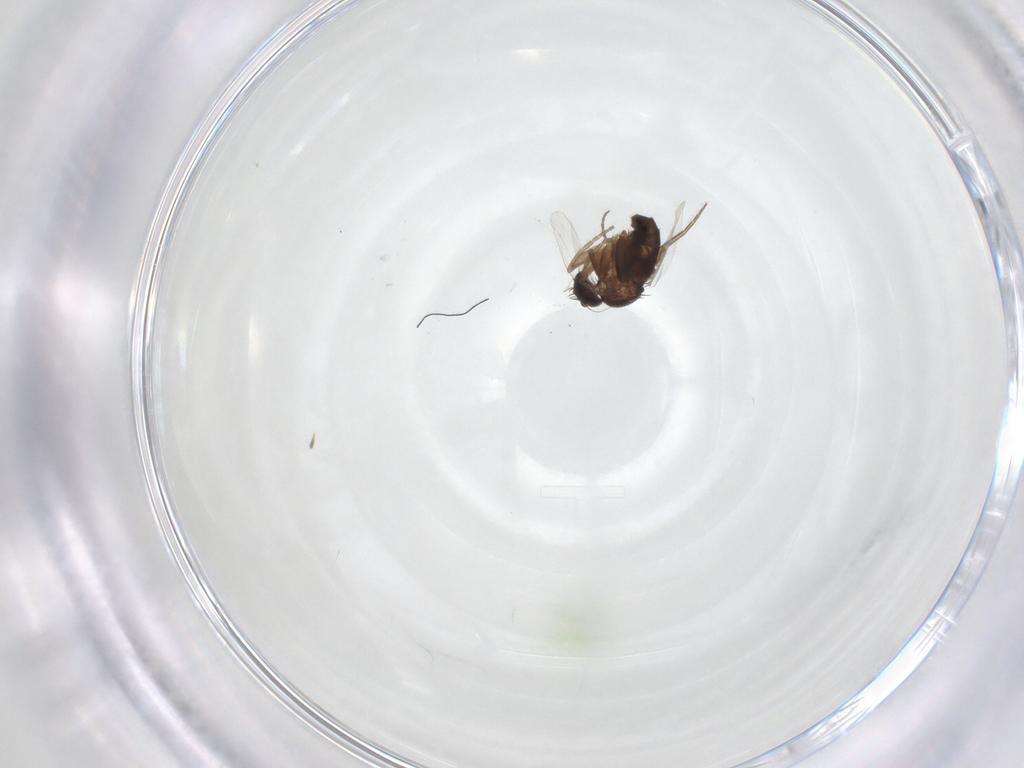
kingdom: Animalia
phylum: Arthropoda
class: Insecta
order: Diptera
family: Phoridae
